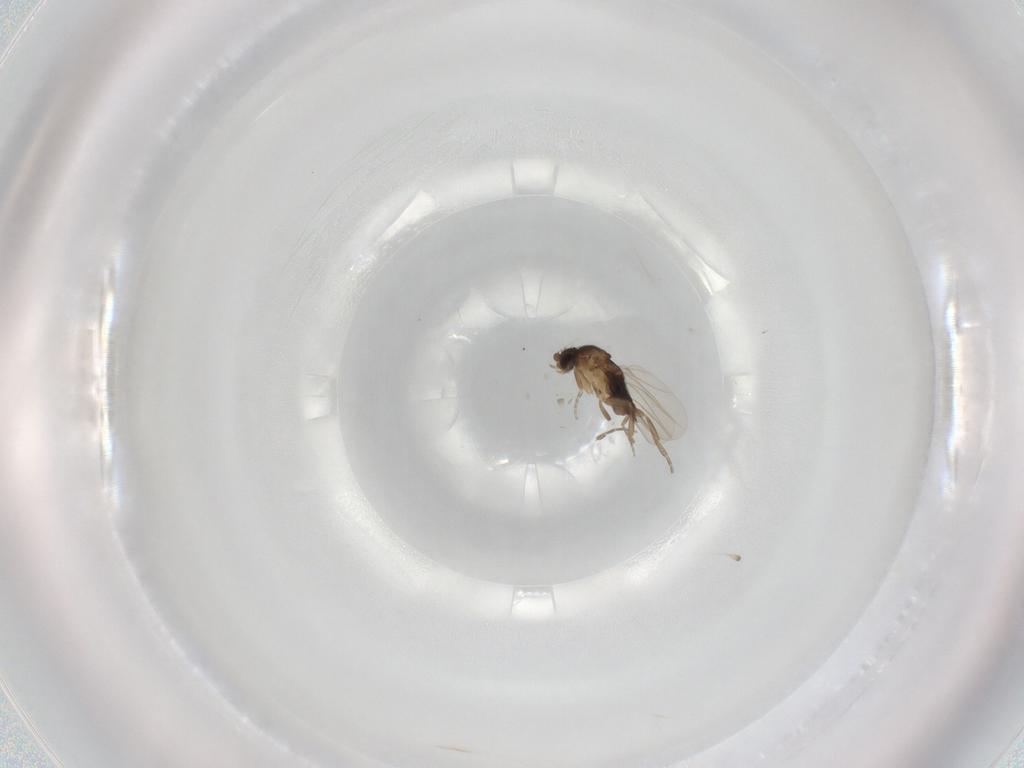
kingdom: Animalia
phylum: Arthropoda
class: Insecta
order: Diptera
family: Phoridae
